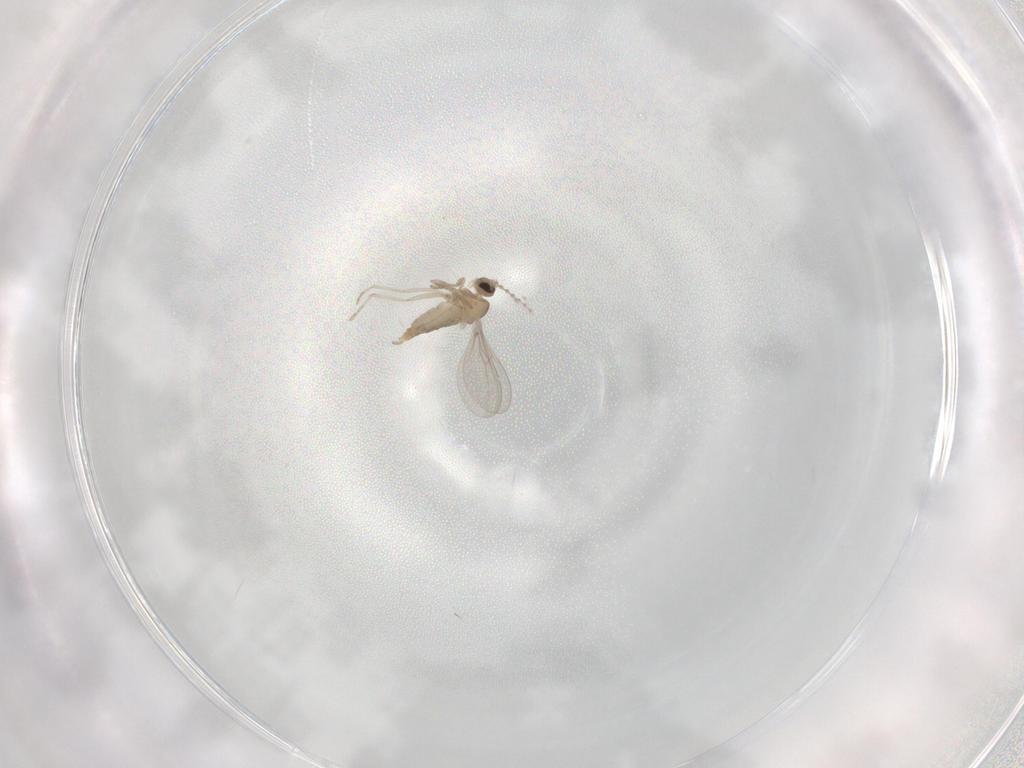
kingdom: Animalia
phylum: Arthropoda
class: Insecta
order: Diptera
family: Cecidomyiidae
